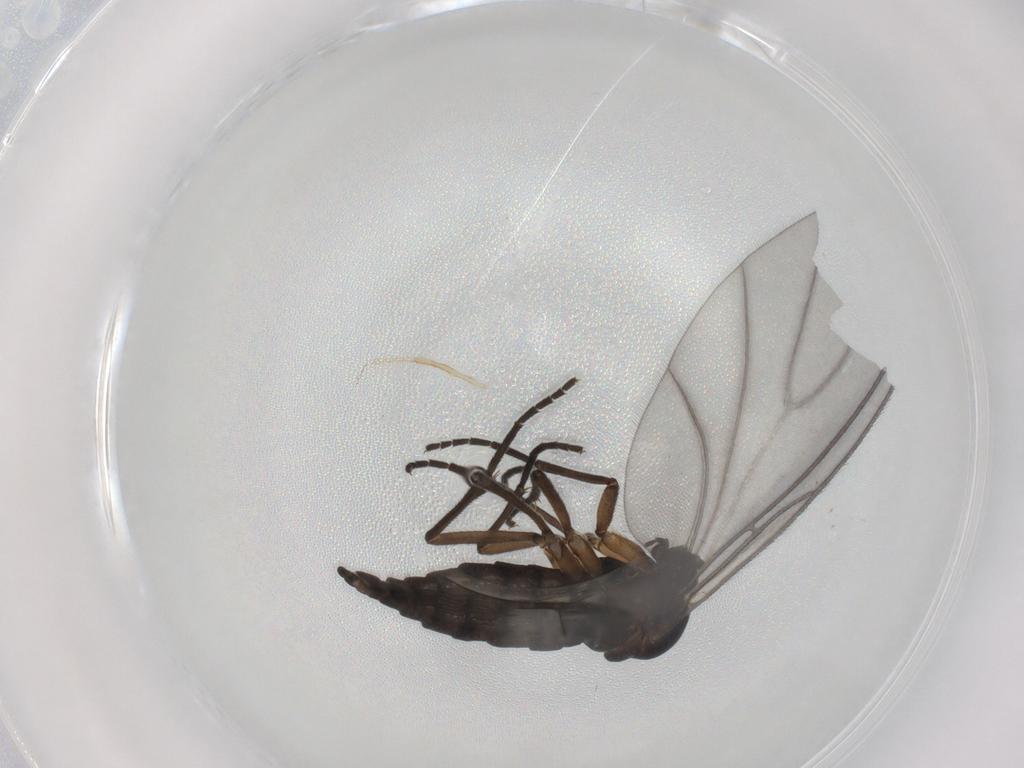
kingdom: Animalia
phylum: Arthropoda
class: Insecta
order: Diptera
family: Sciaridae
